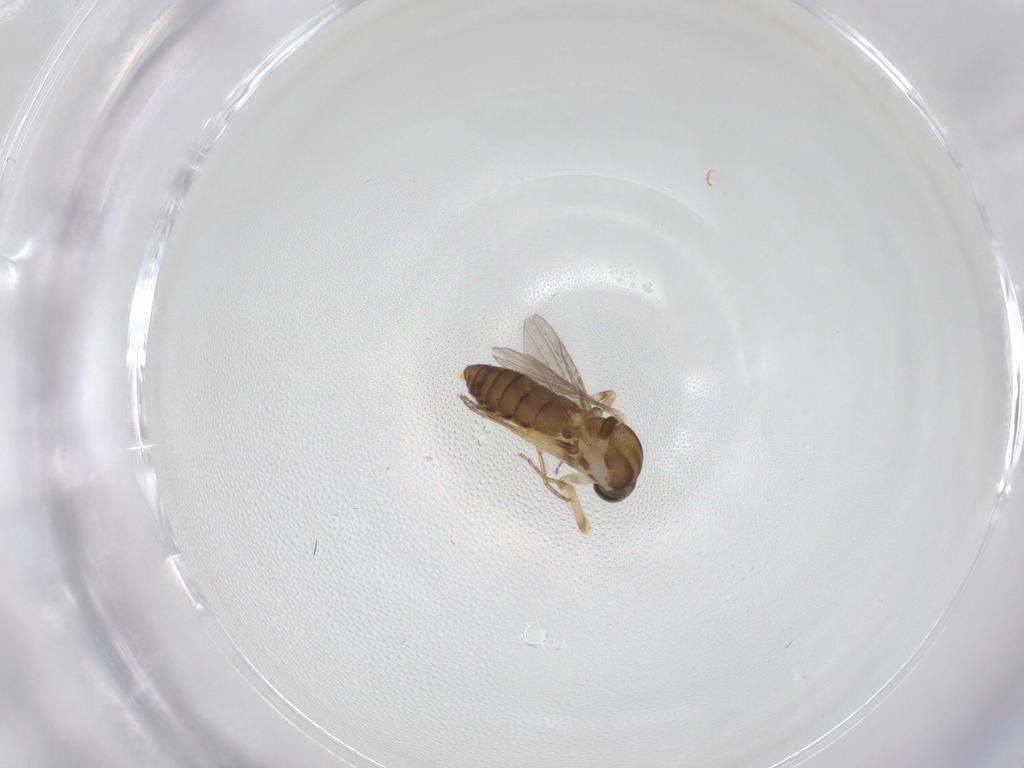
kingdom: Animalia
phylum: Arthropoda
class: Insecta
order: Diptera
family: Ceratopogonidae
